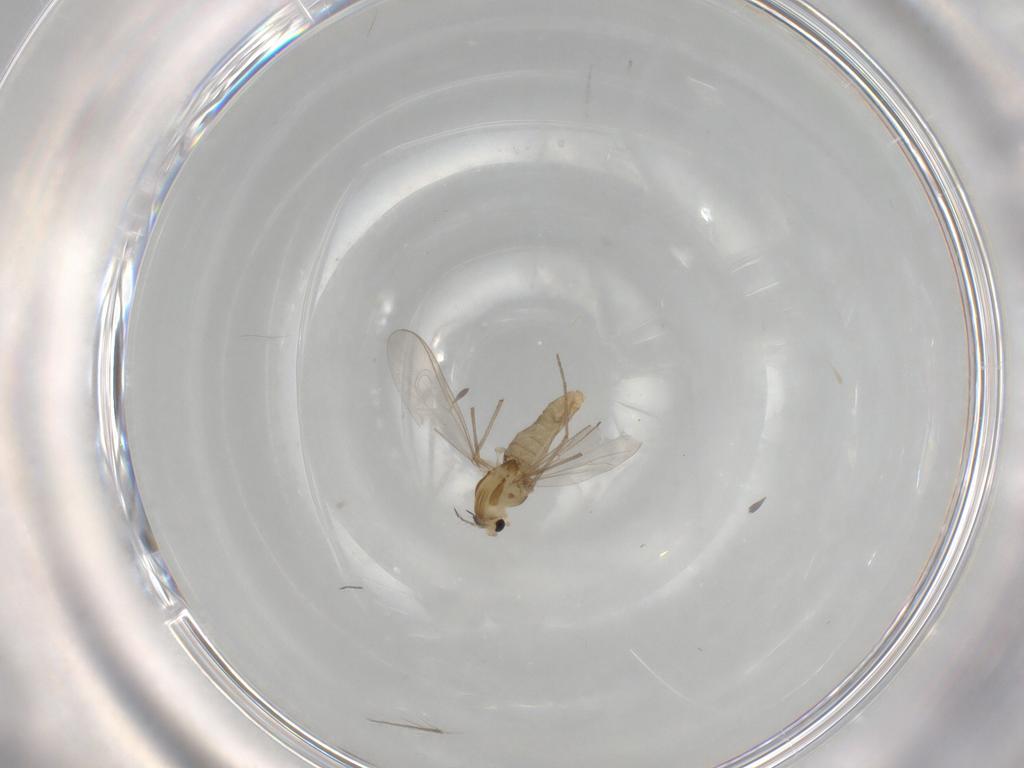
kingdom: Animalia
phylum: Arthropoda
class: Insecta
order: Diptera
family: Chironomidae
